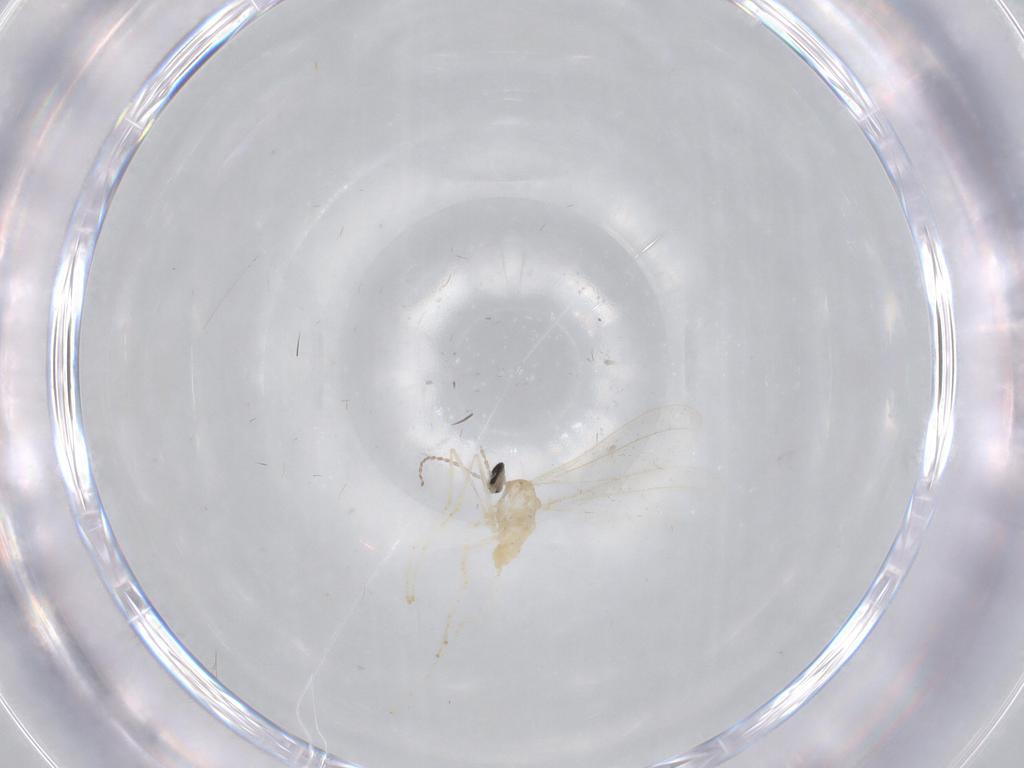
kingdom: Animalia
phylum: Arthropoda
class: Insecta
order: Diptera
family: Cecidomyiidae
